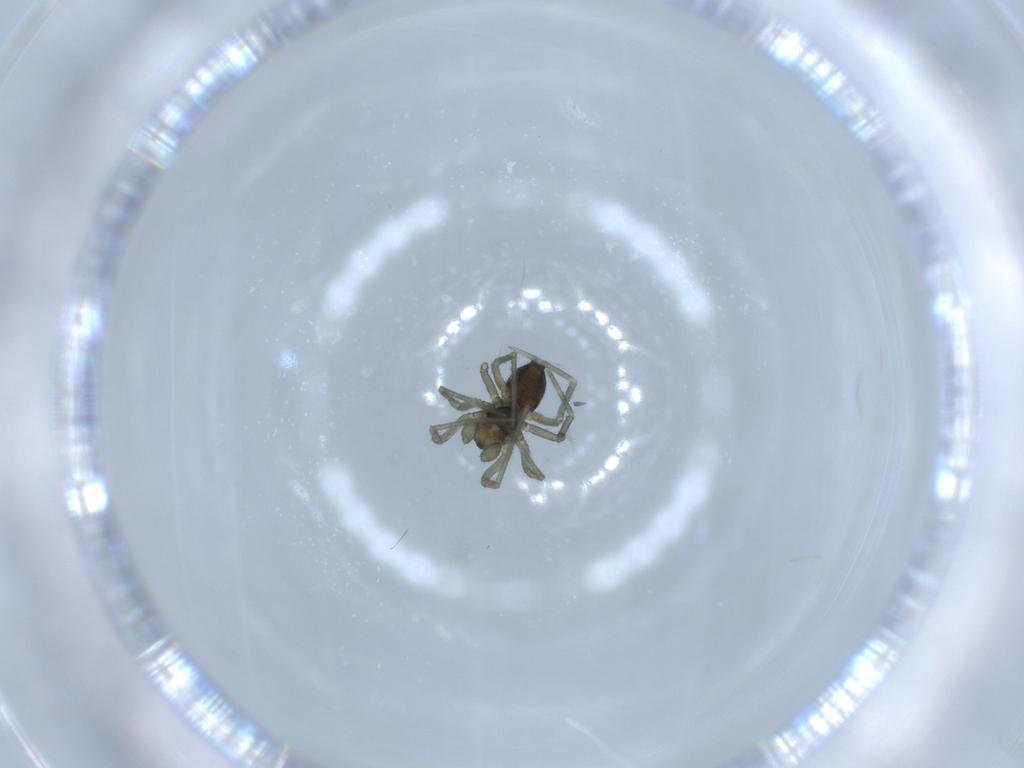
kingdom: Animalia
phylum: Arthropoda
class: Arachnida
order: Araneae
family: Linyphiidae
